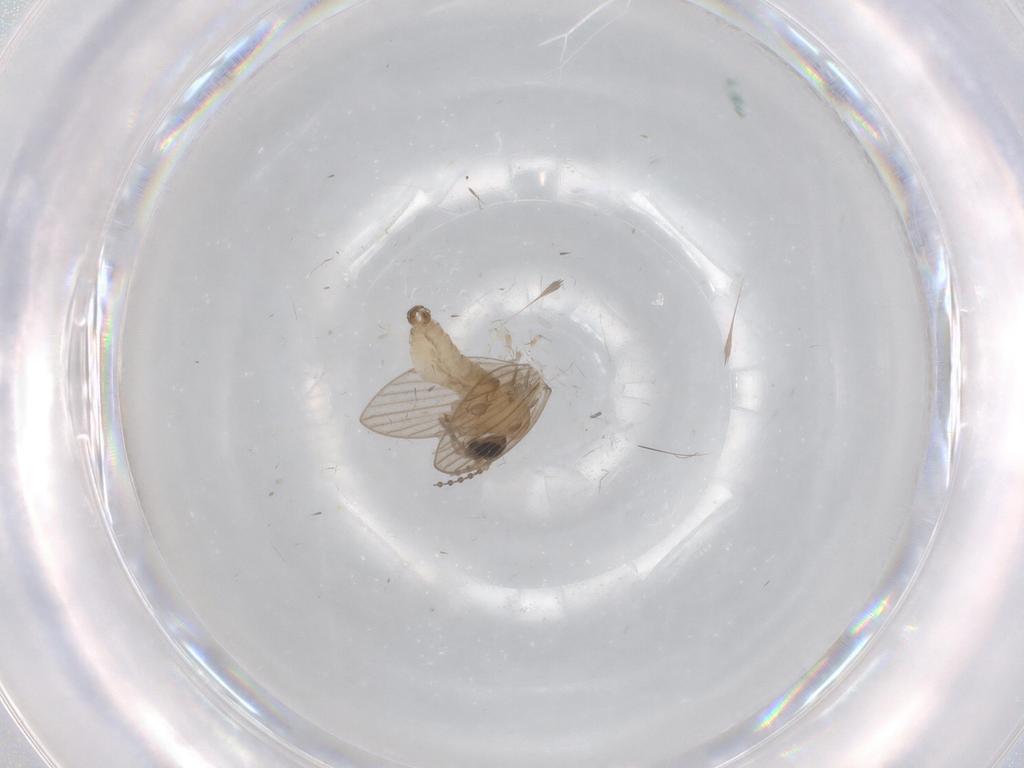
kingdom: Animalia
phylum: Arthropoda
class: Insecta
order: Diptera
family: Psychodidae
